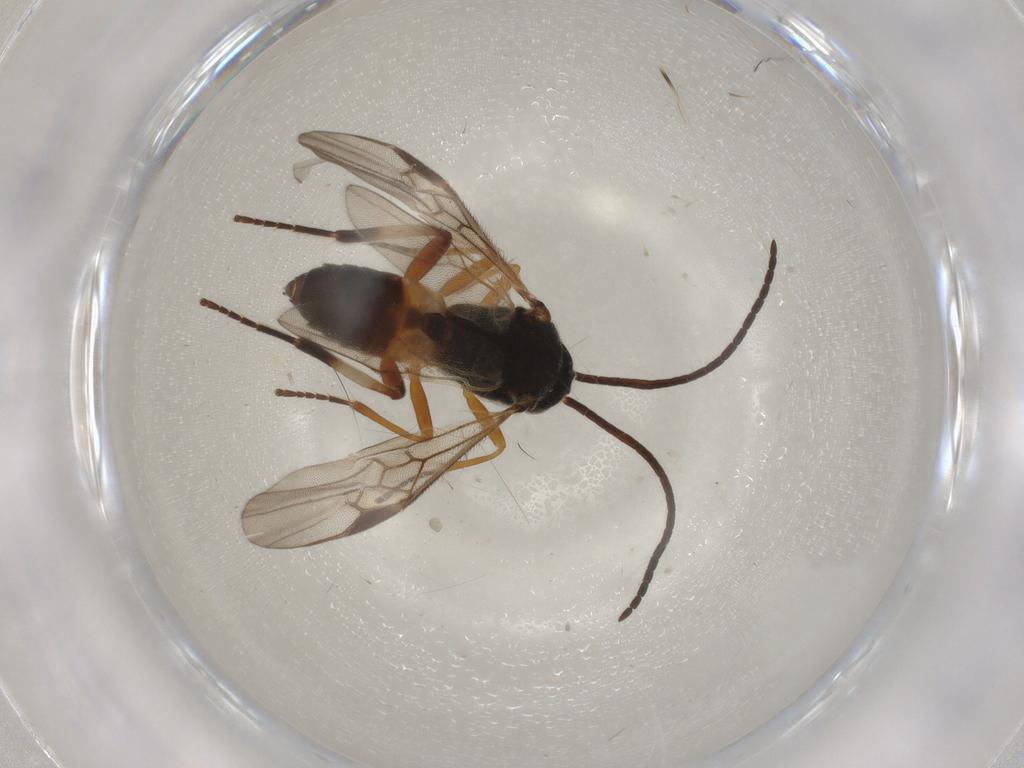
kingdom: Animalia
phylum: Arthropoda
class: Insecta
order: Hymenoptera
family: Braconidae
